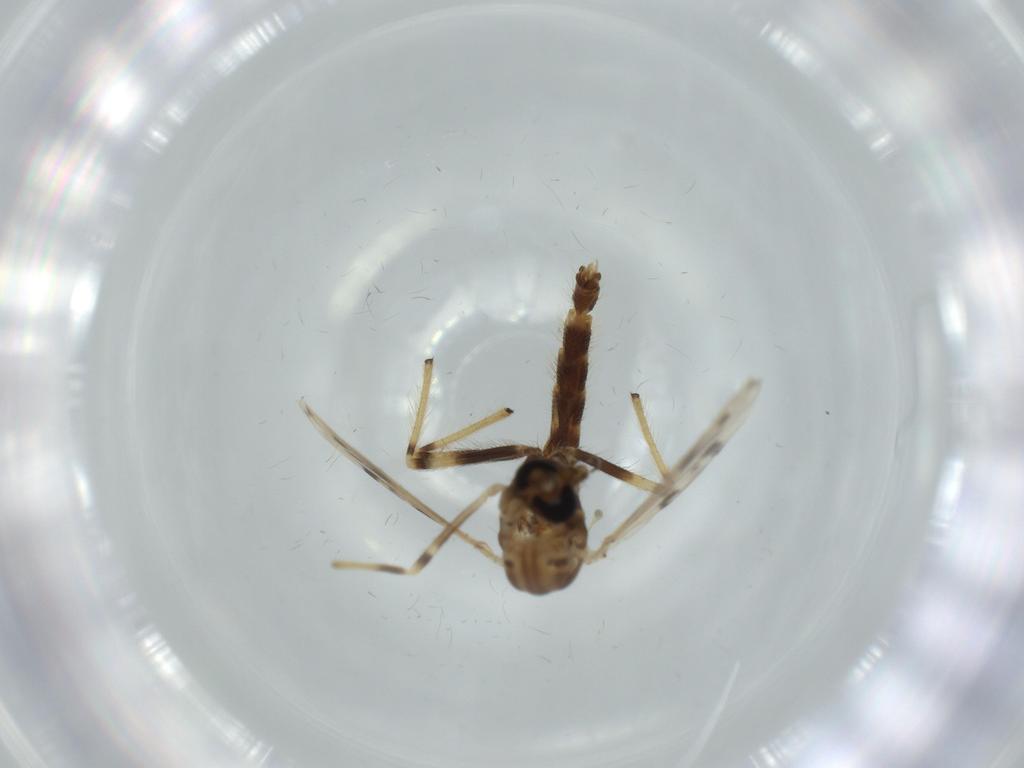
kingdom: Animalia
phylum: Arthropoda
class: Insecta
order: Diptera
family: Cecidomyiidae
